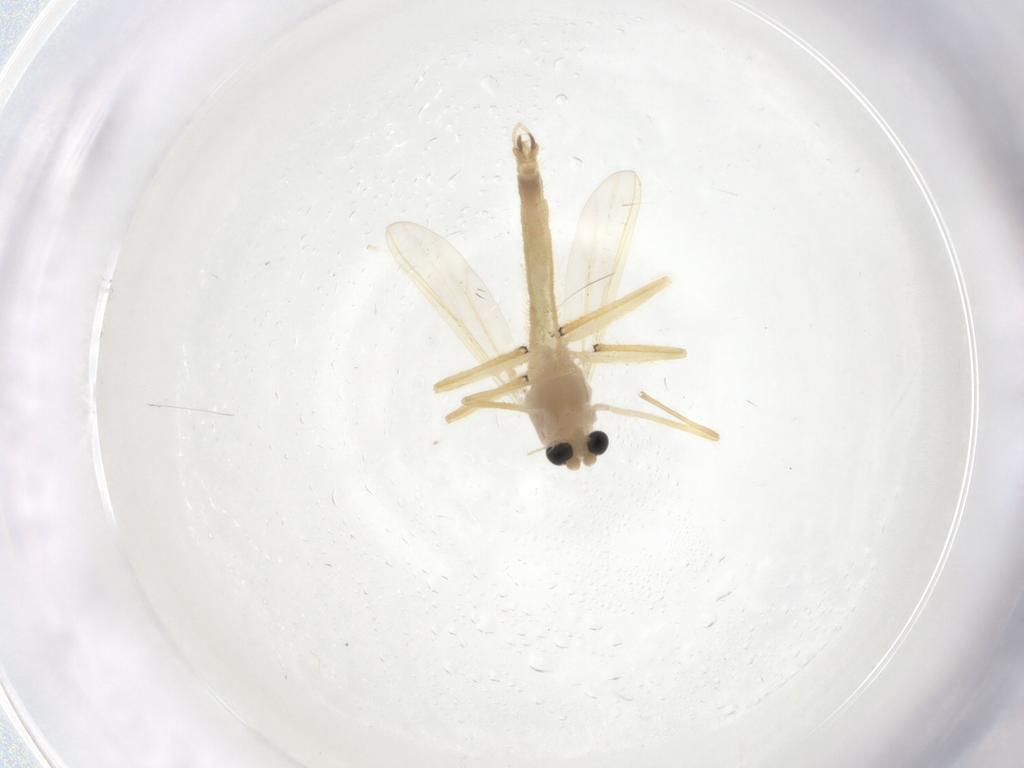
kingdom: Animalia
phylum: Arthropoda
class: Insecta
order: Diptera
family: Chironomidae
